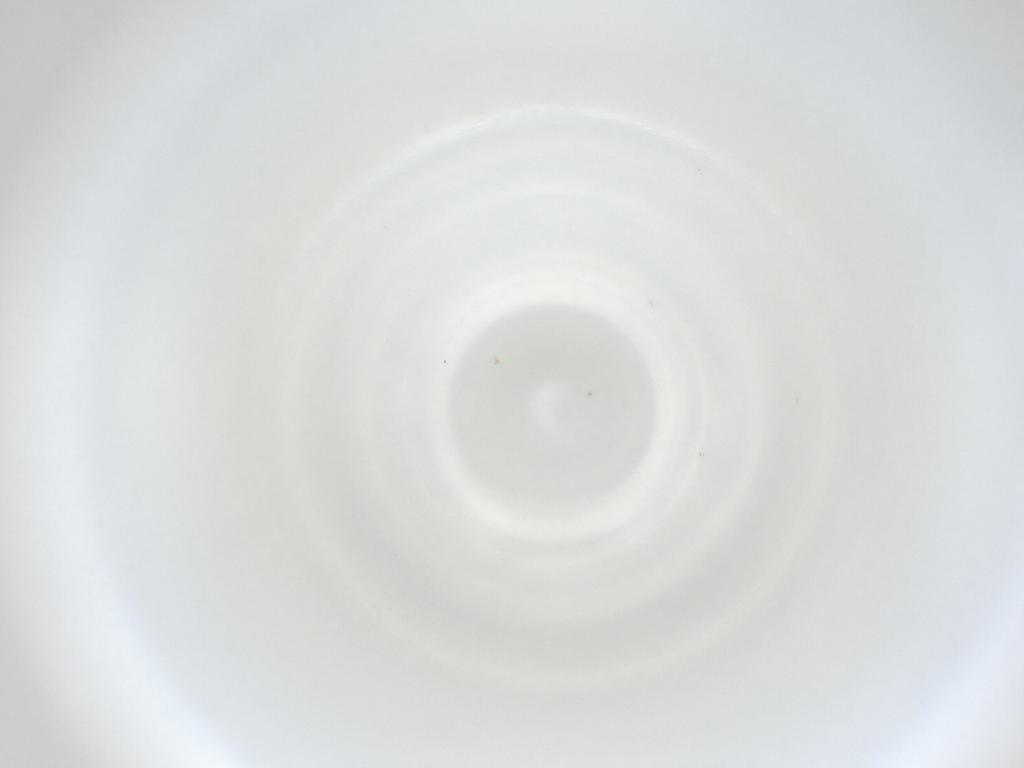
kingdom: Animalia
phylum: Arthropoda
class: Insecta
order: Diptera
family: Cecidomyiidae
